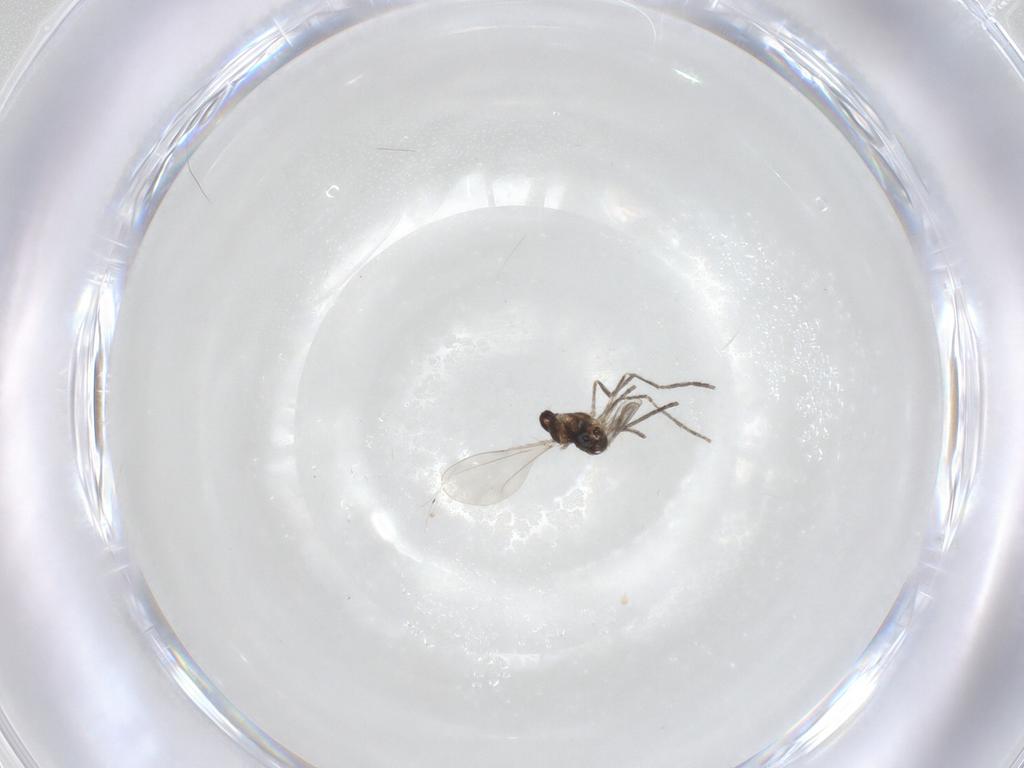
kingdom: Animalia
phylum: Arthropoda
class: Insecta
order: Diptera
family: Cecidomyiidae
